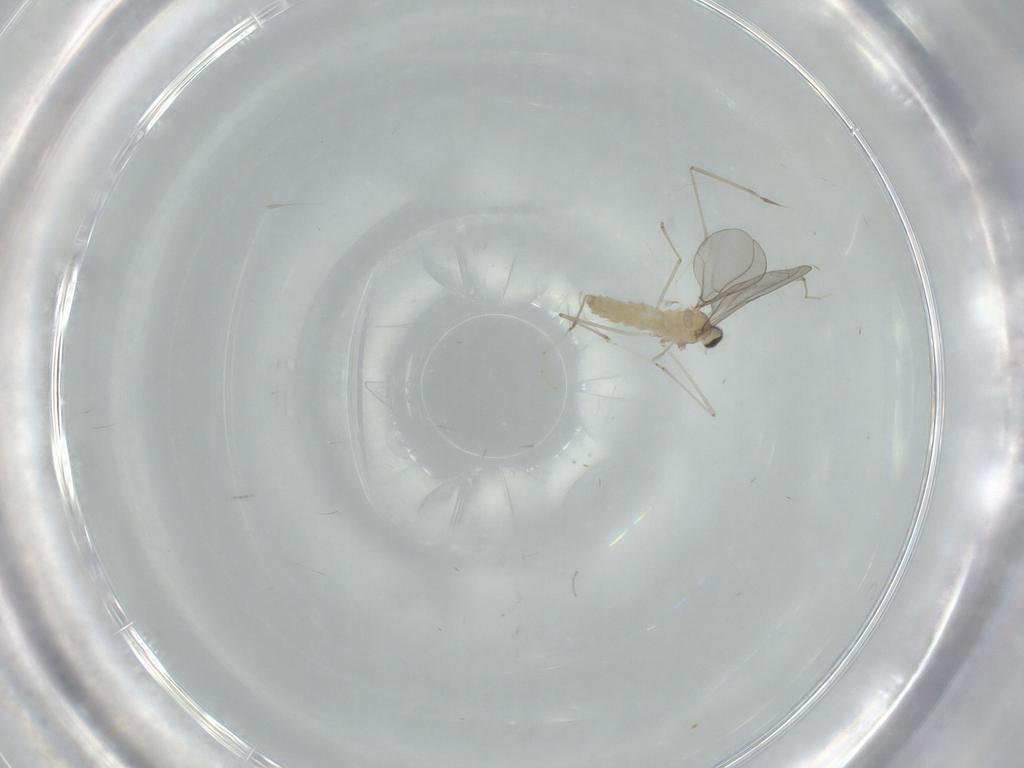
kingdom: Animalia
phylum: Arthropoda
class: Insecta
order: Diptera
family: Cecidomyiidae
